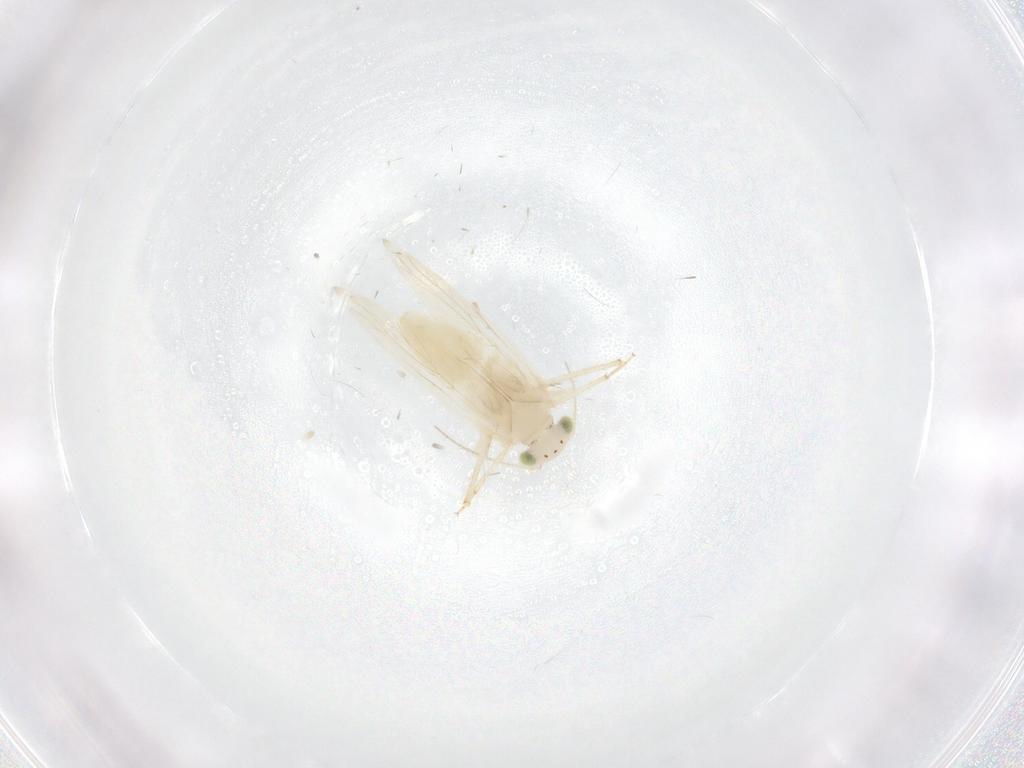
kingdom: Animalia
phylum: Arthropoda
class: Insecta
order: Psocodea
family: Lepidopsocidae
